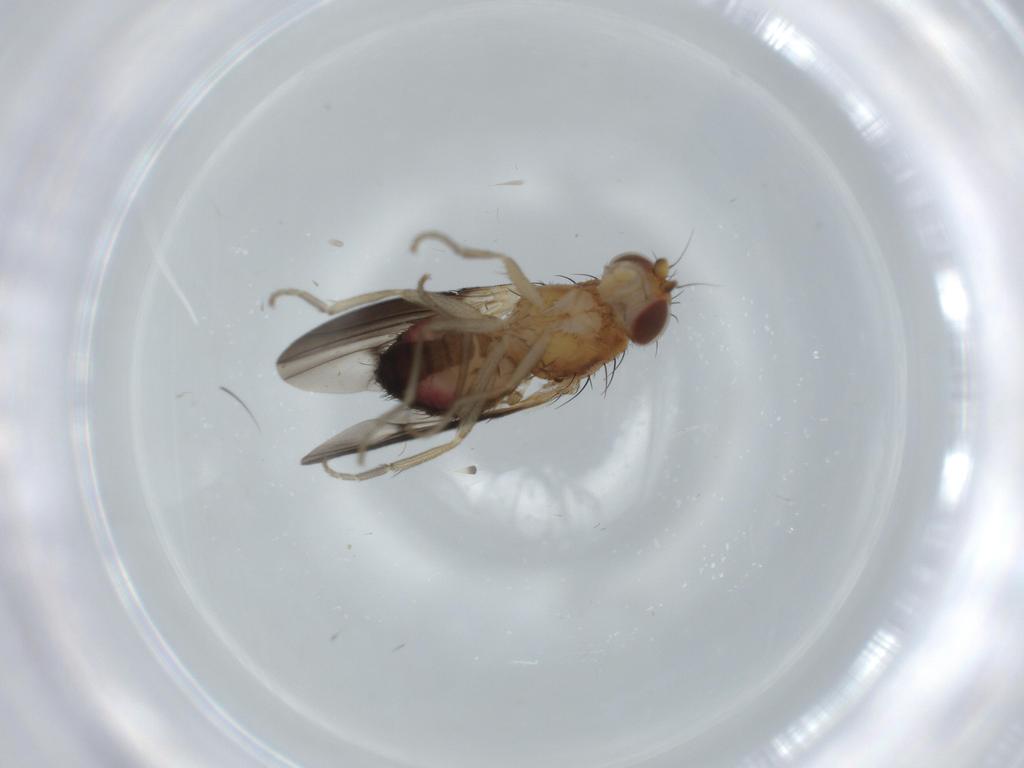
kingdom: Animalia
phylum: Arthropoda
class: Insecta
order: Diptera
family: Heleomyzidae
